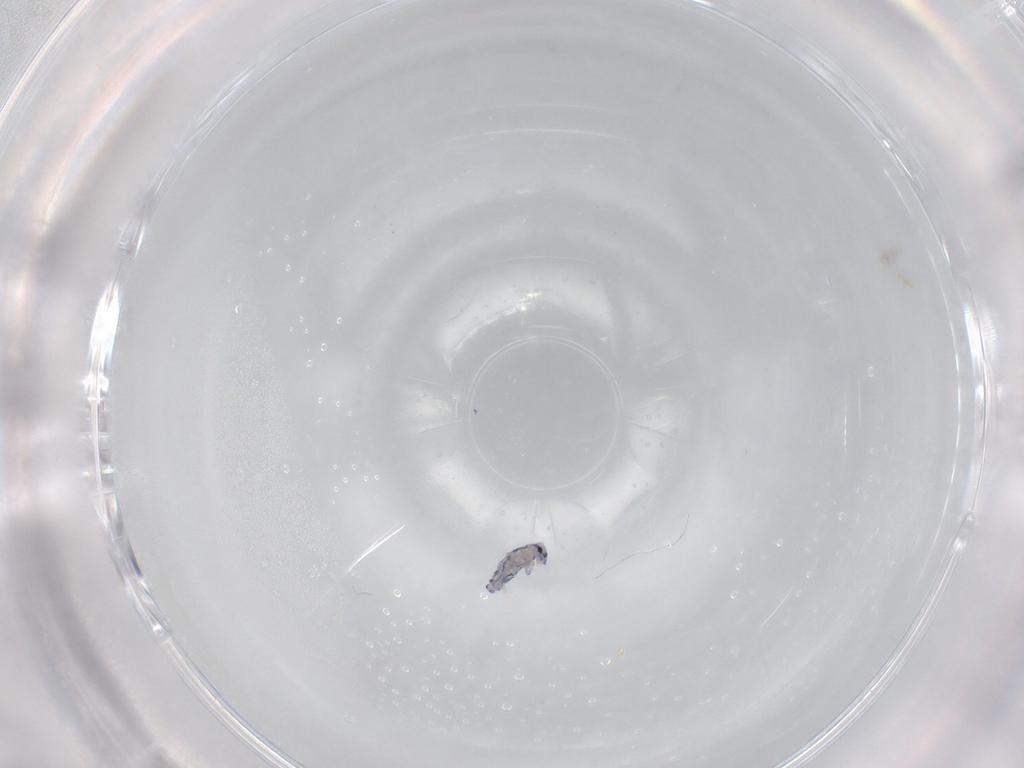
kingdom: Animalia
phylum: Arthropoda
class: Collembola
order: Entomobryomorpha
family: Entomobryidae
